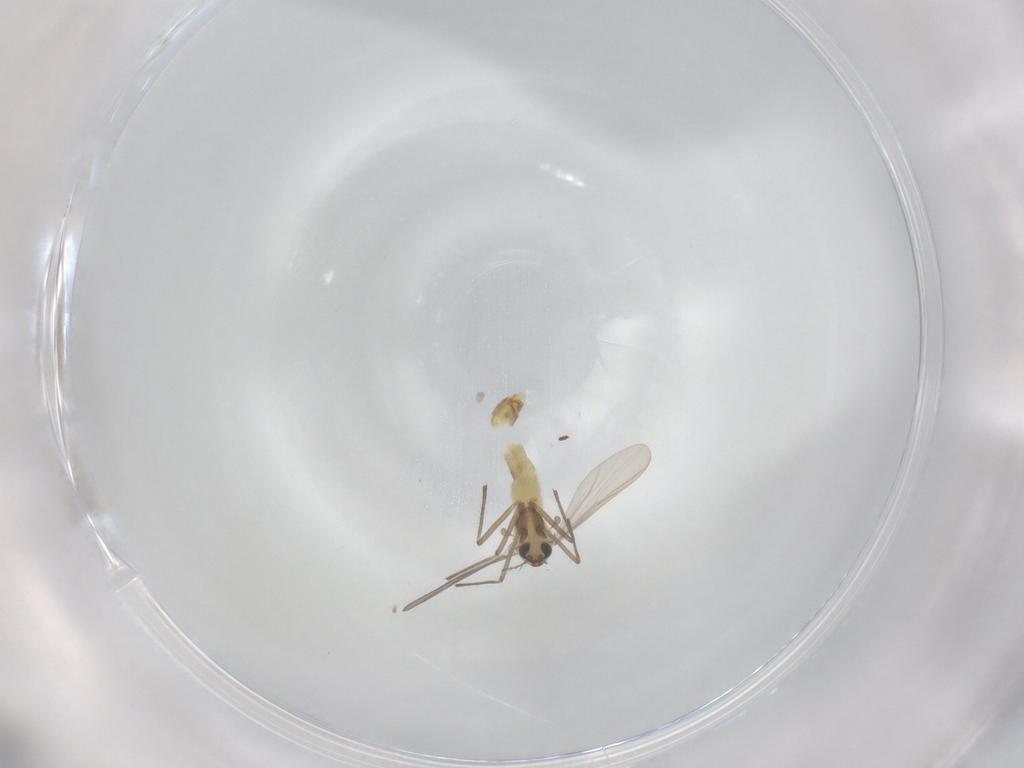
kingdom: Animalia
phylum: Arthropoda
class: Insecta
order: Diptera
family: Chironomidae
